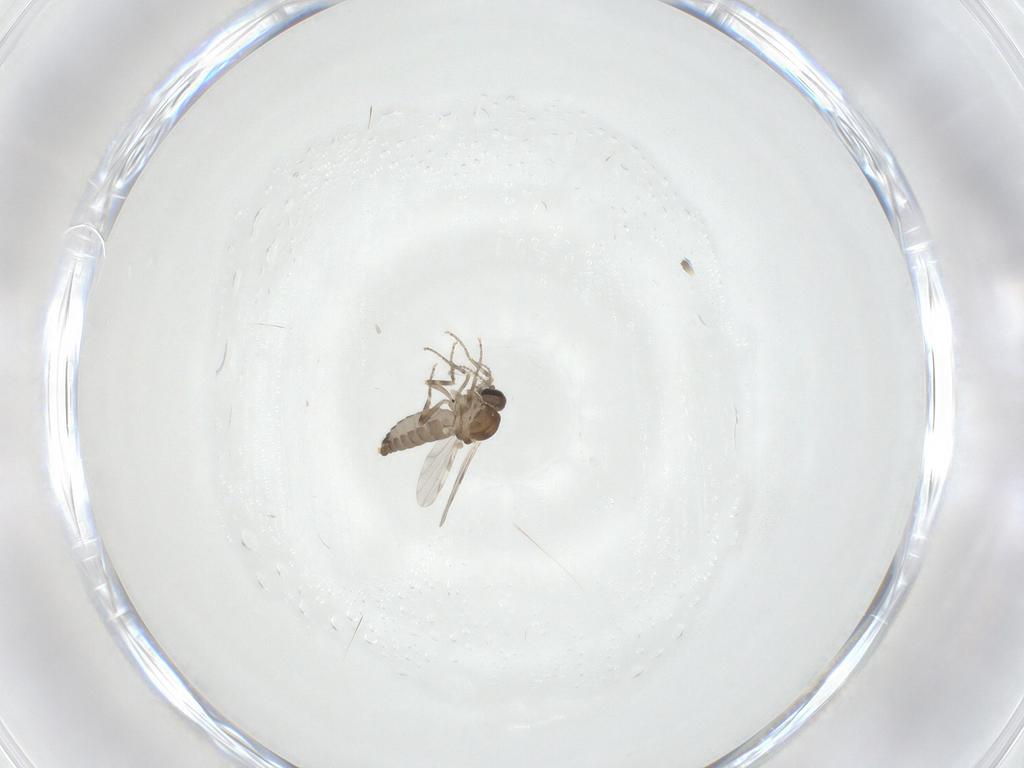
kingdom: Animalia
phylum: Arthropoda
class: Insecta
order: Diptera
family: Ceratopogonidae
